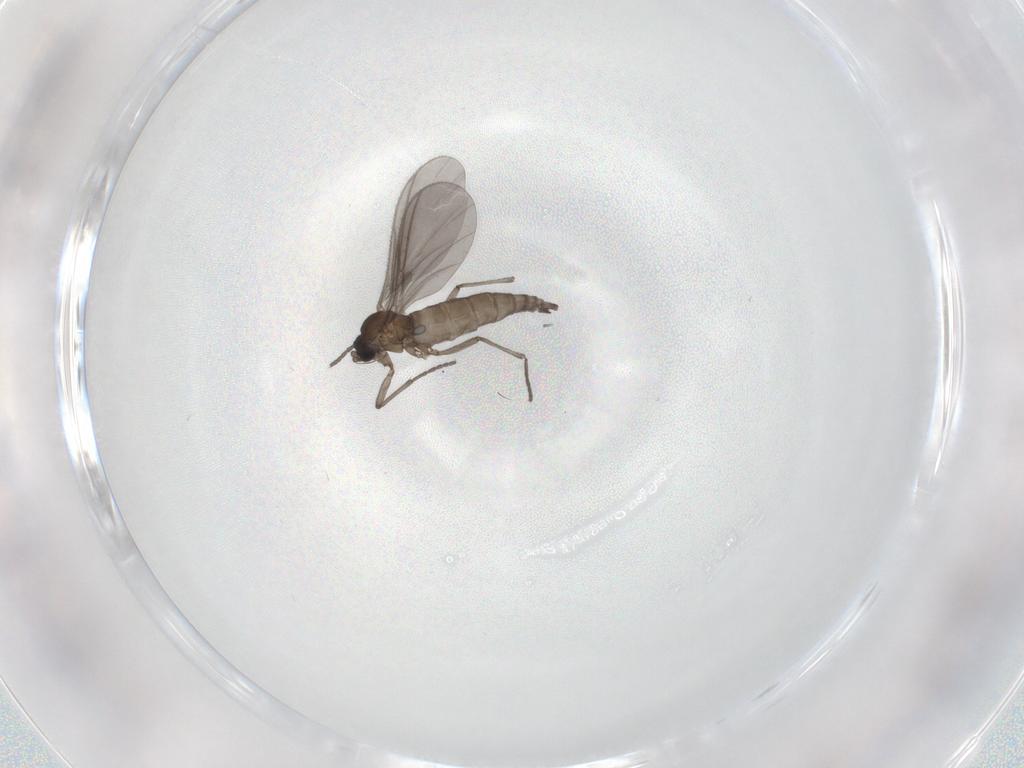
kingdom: Animalia
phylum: Arthropoda
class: Insecta
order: Diptera
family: Sciaridae
